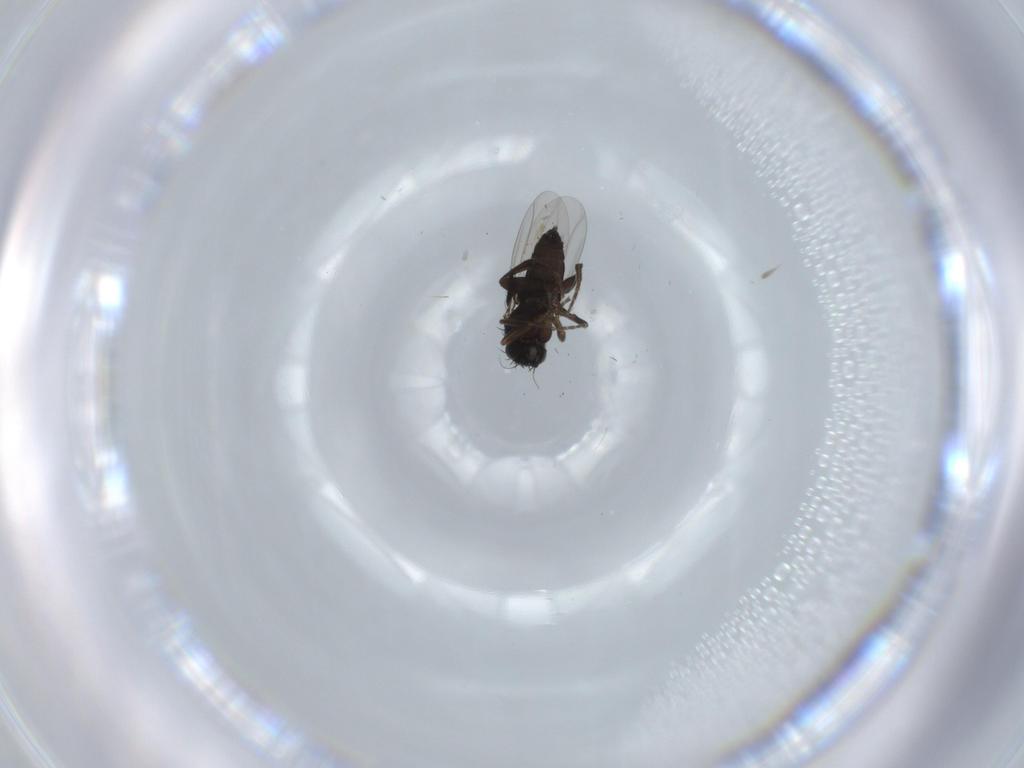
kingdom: Animalia
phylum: Arthropoda
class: Insecta
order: Diptera
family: Phoridae
